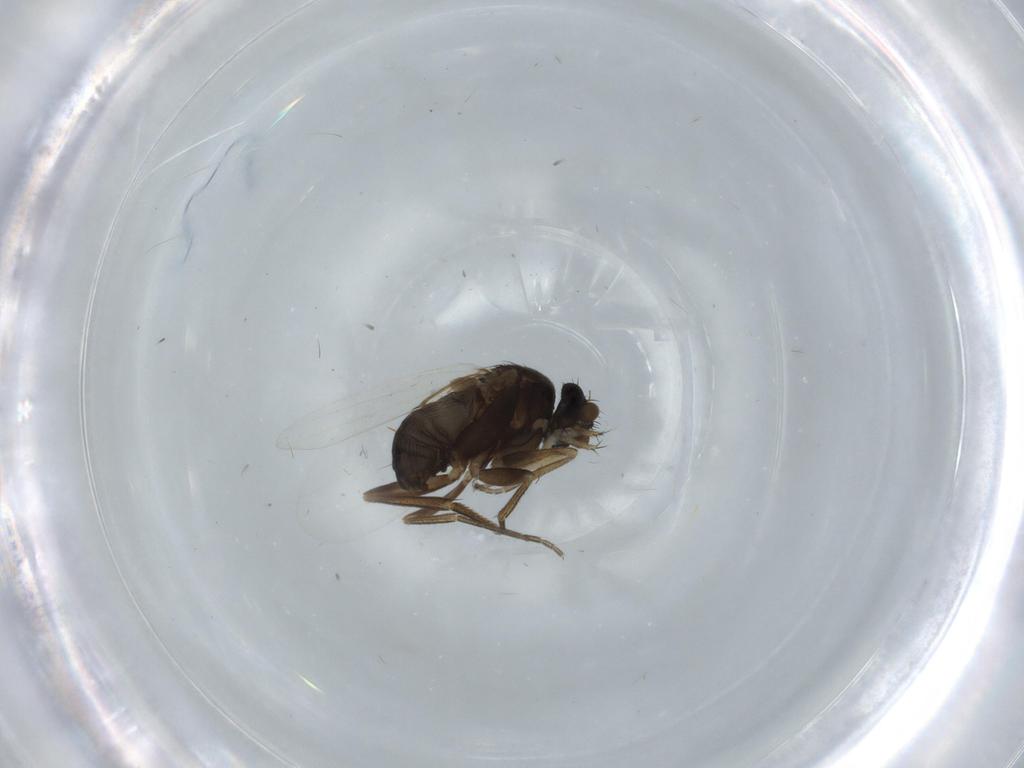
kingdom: Animalia
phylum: Arthropoda
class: Insecta
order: Diptera
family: Phoridae
